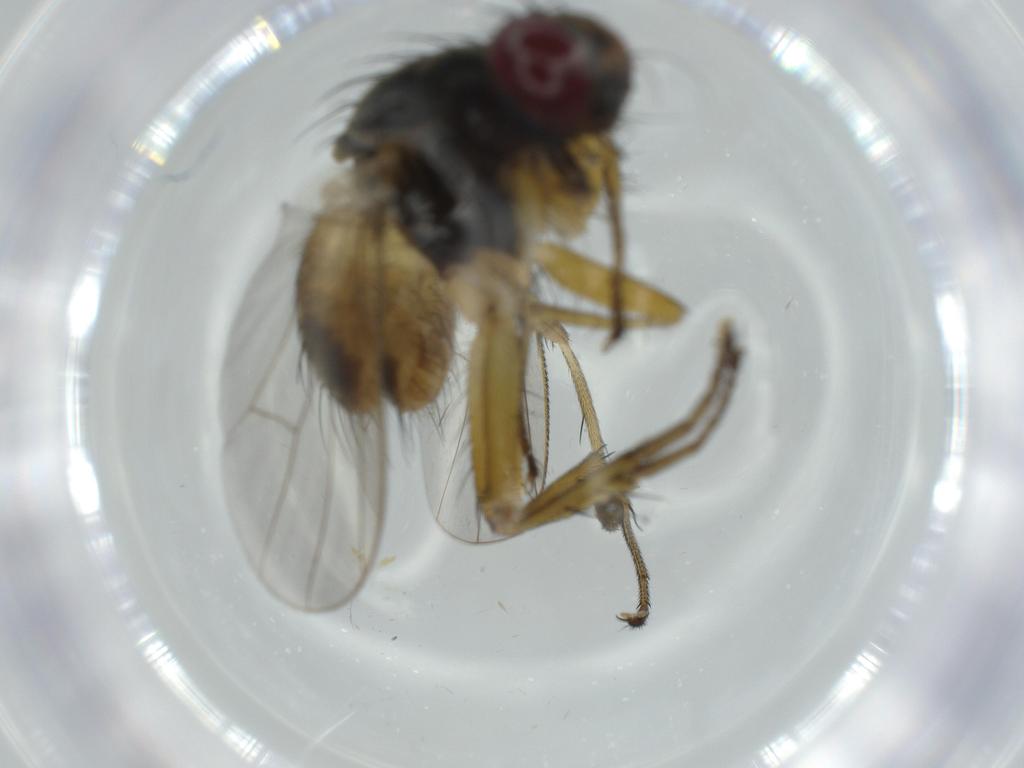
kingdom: Animalia
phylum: Arthropoda
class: Insecta
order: Diptera
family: Muscidae
